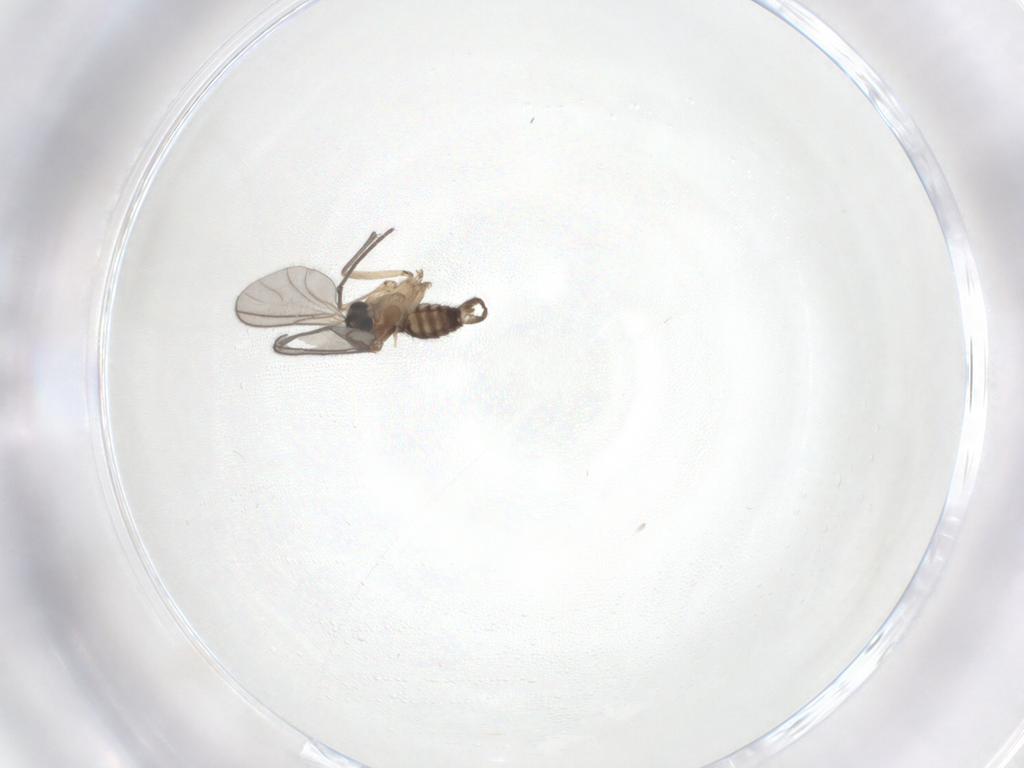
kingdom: Animalia
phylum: Arthropoda
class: Insecta
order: Diptera
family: Sciaridae
